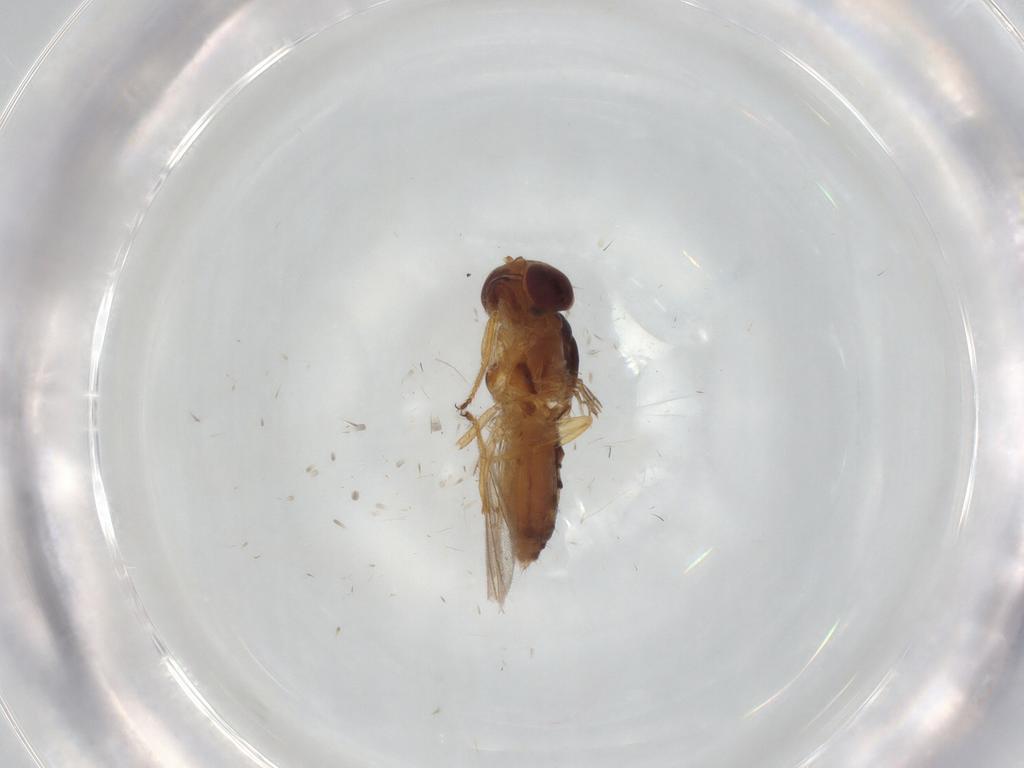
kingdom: Animalia
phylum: Arthropoda
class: Insecta
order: Diptera
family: Asteiidae
